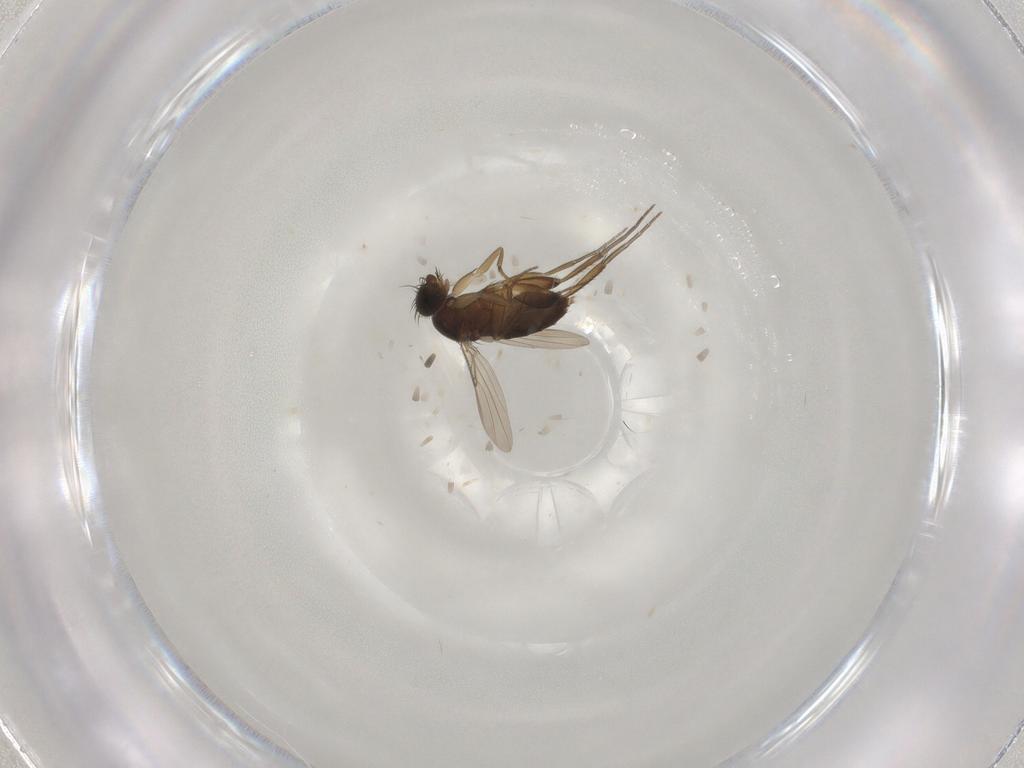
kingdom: Animalia
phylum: Arthropoda
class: Insecta
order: Diptera
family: Phoridae
